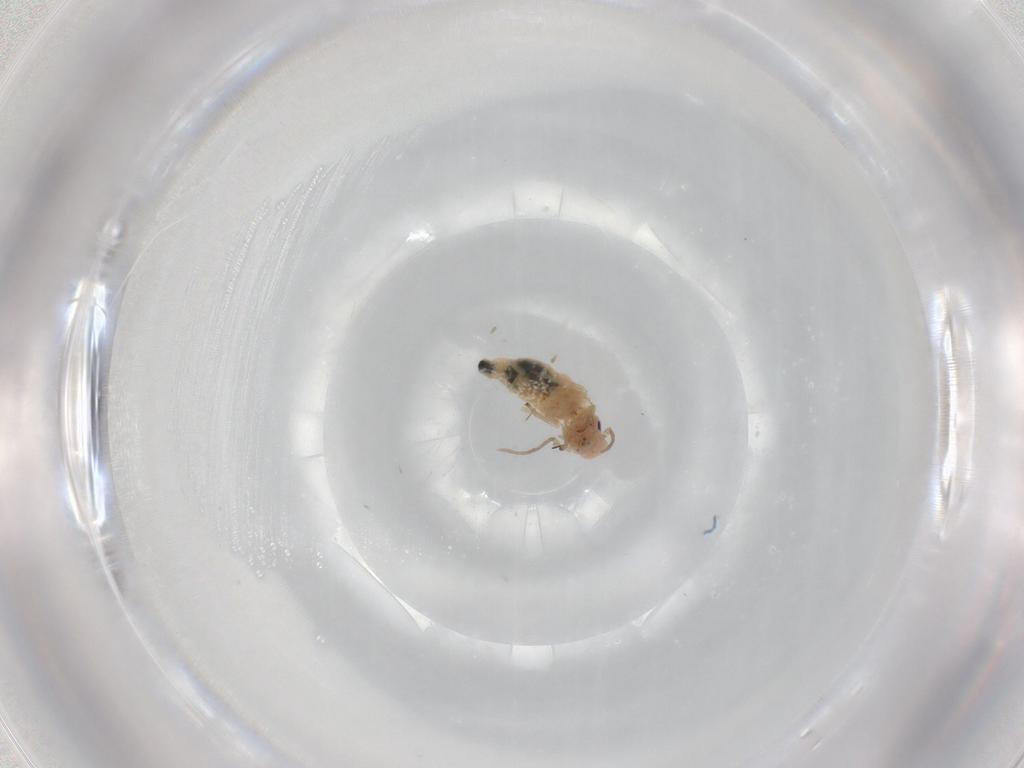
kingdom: Animalia
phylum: Arthropoda
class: Insecta
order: Psocodea
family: Caeciliusidae
